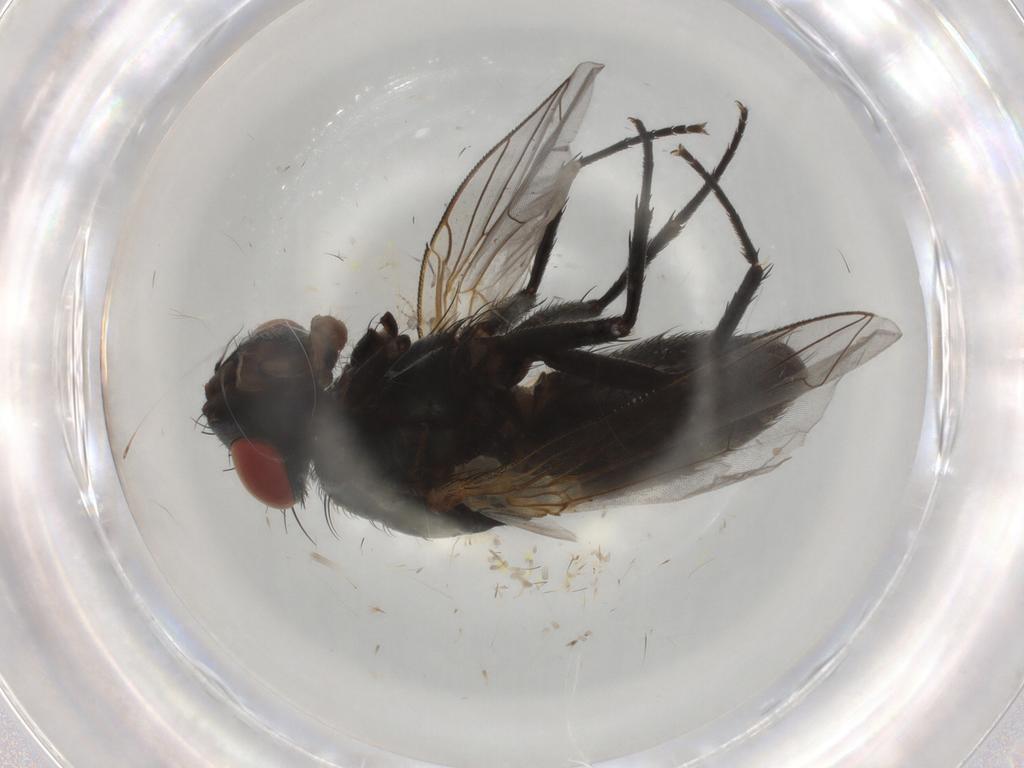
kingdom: Animalia
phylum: Arthropoda
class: Insecta
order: Diptera
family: Sarcophagidae
